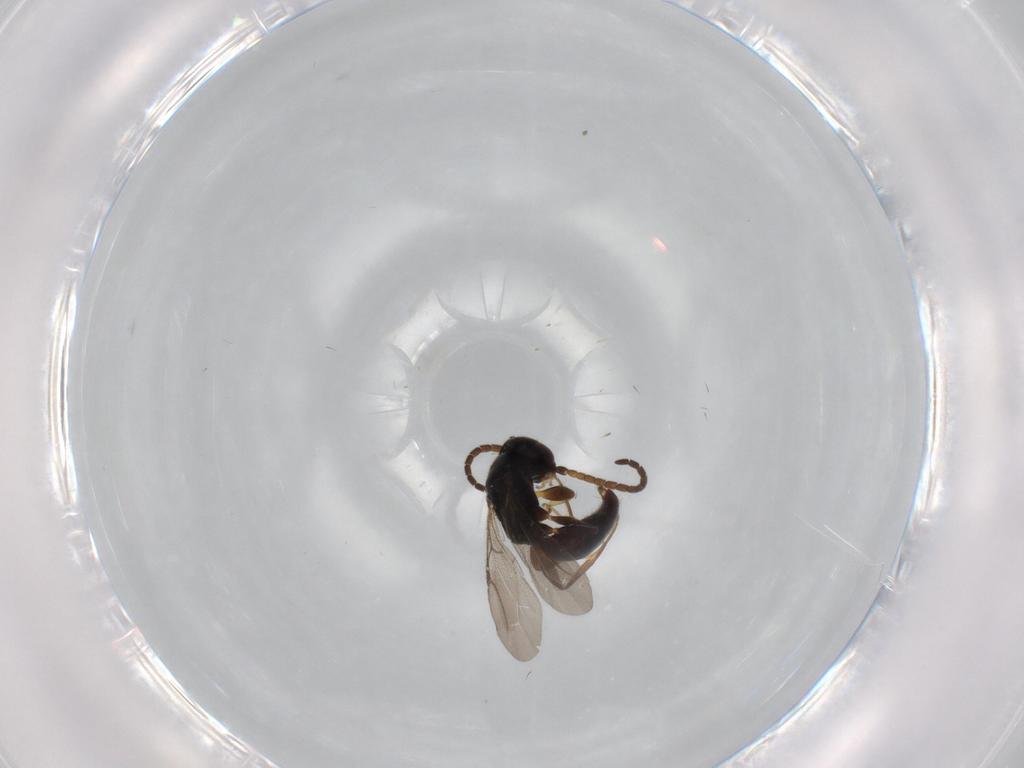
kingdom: Animalia
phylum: Arthropoda
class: Insecta
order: Hymenoptera
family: Bethylidae
